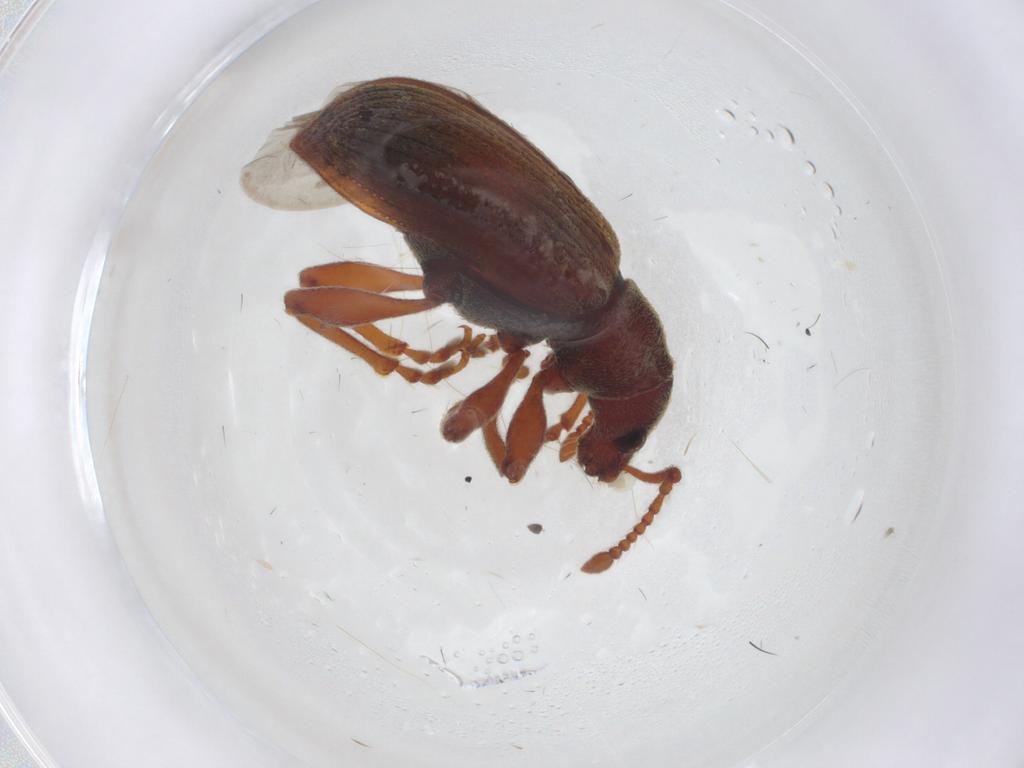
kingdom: Animalia
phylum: Arthropoda
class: Insecta
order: Coleoptera
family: Curculionidae
